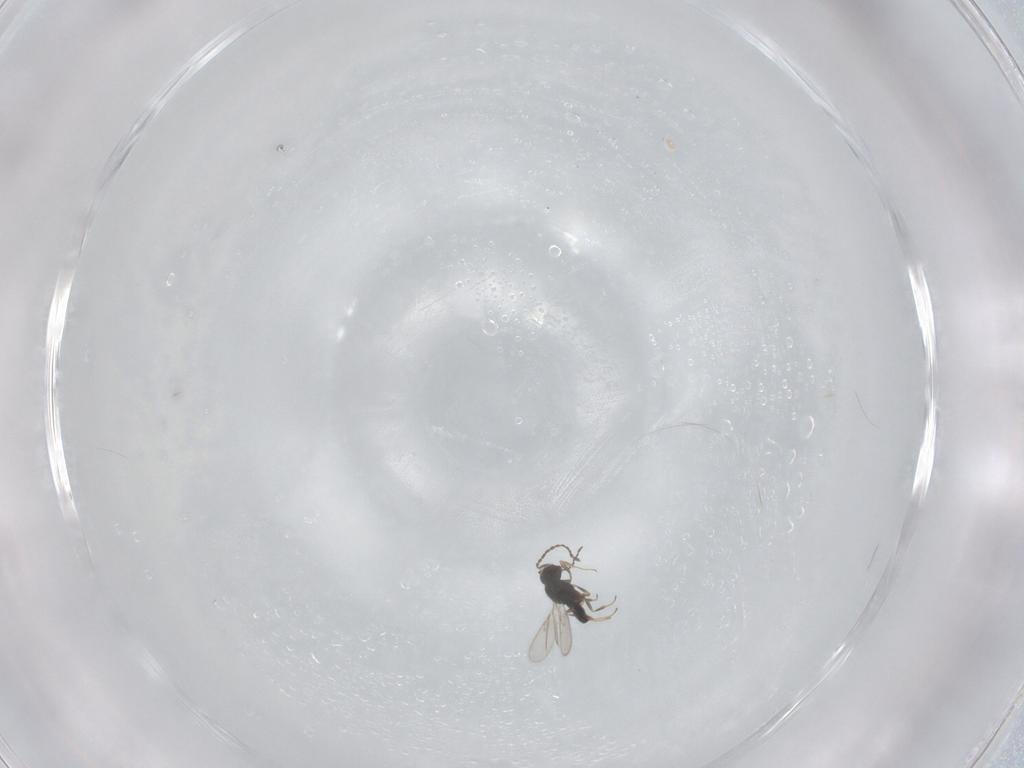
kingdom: Animalia
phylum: Arthropoda
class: Insecta
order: Hymenoptera
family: Scelionidae
